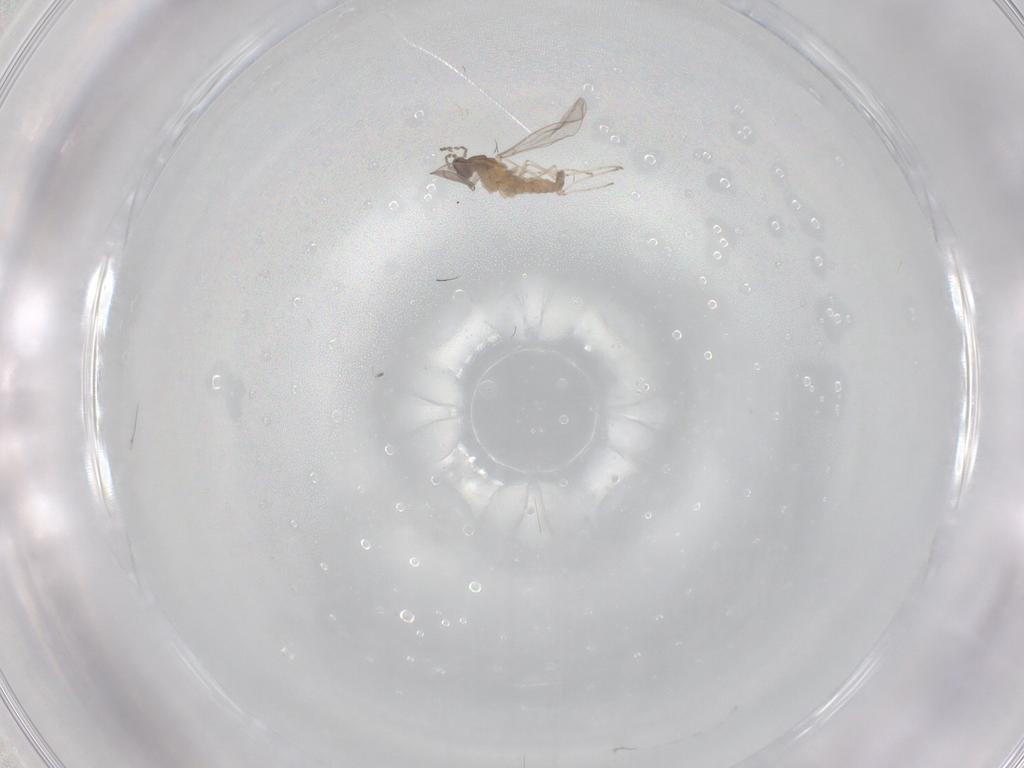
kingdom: Animalia
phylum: Arthropoda
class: Insecta
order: Diptera
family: Cecidomyiidae
